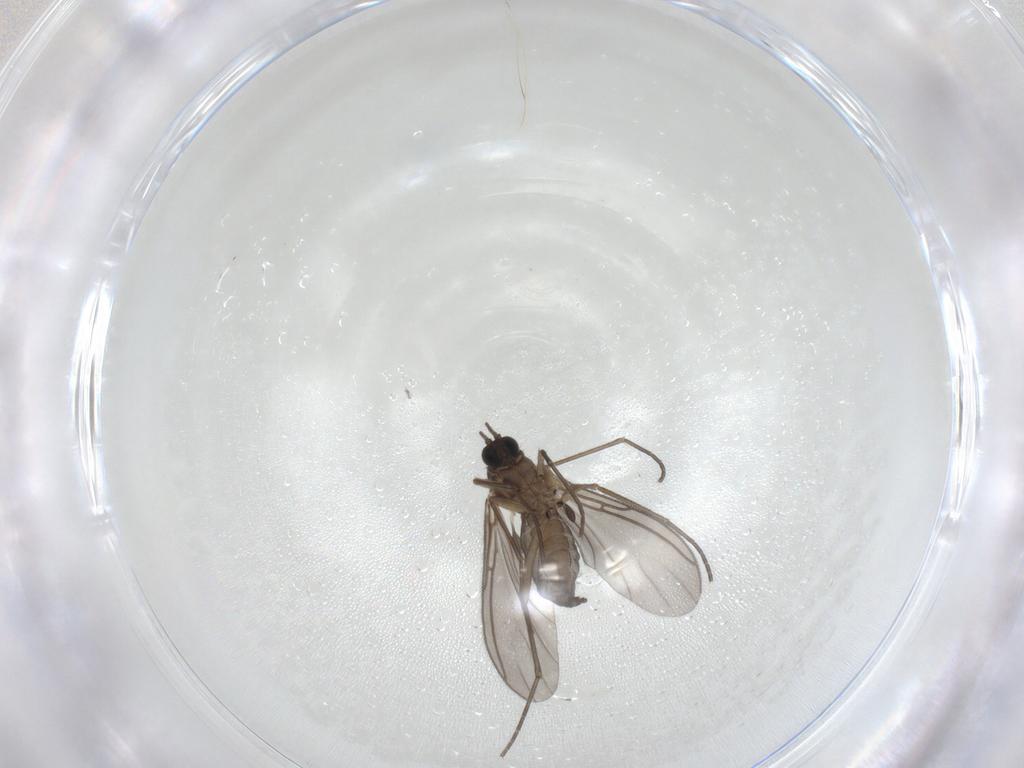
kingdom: Animalia
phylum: Arthropoda
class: Insecta
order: Diptera
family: Sciaridae
